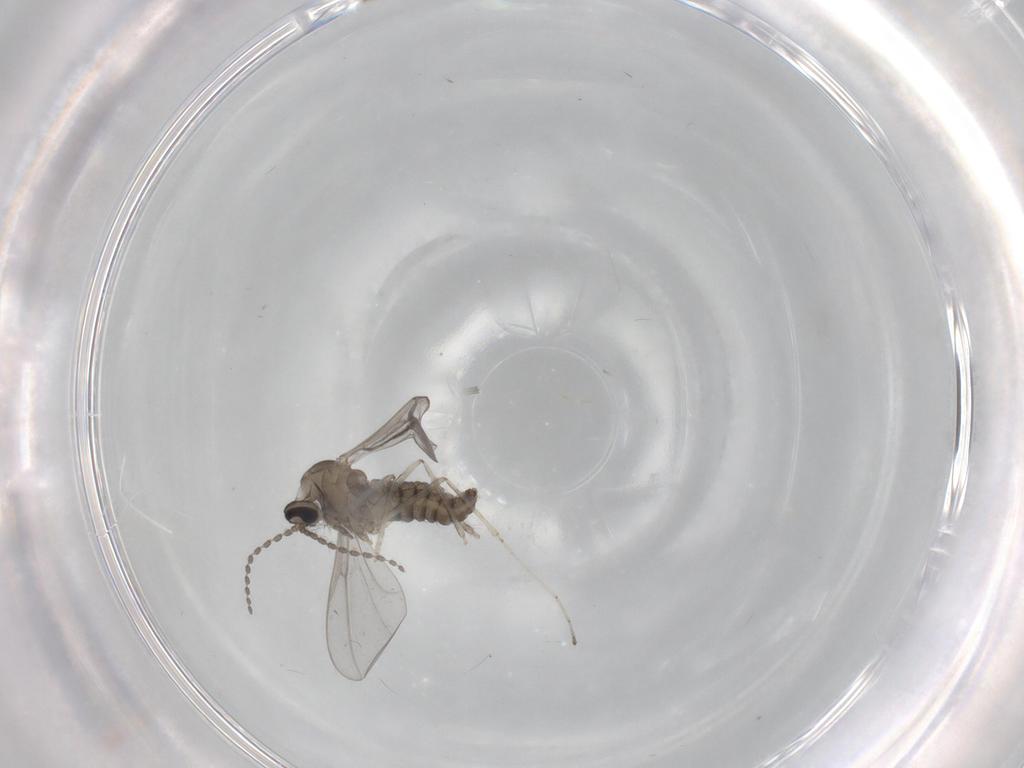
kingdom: Animalia
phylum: Arthropoda
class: Insecta
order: Diptera
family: Cecidomyiidae
